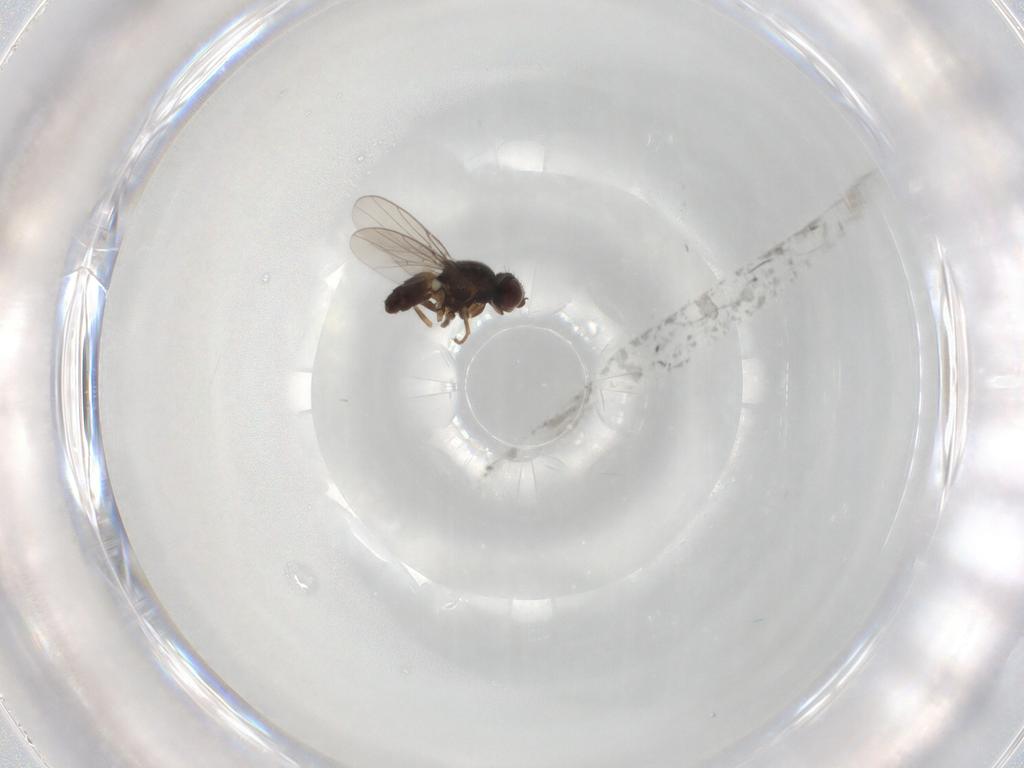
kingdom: Animalia
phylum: Arthropoda
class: Insecta
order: Diptera
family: Chloropidae
